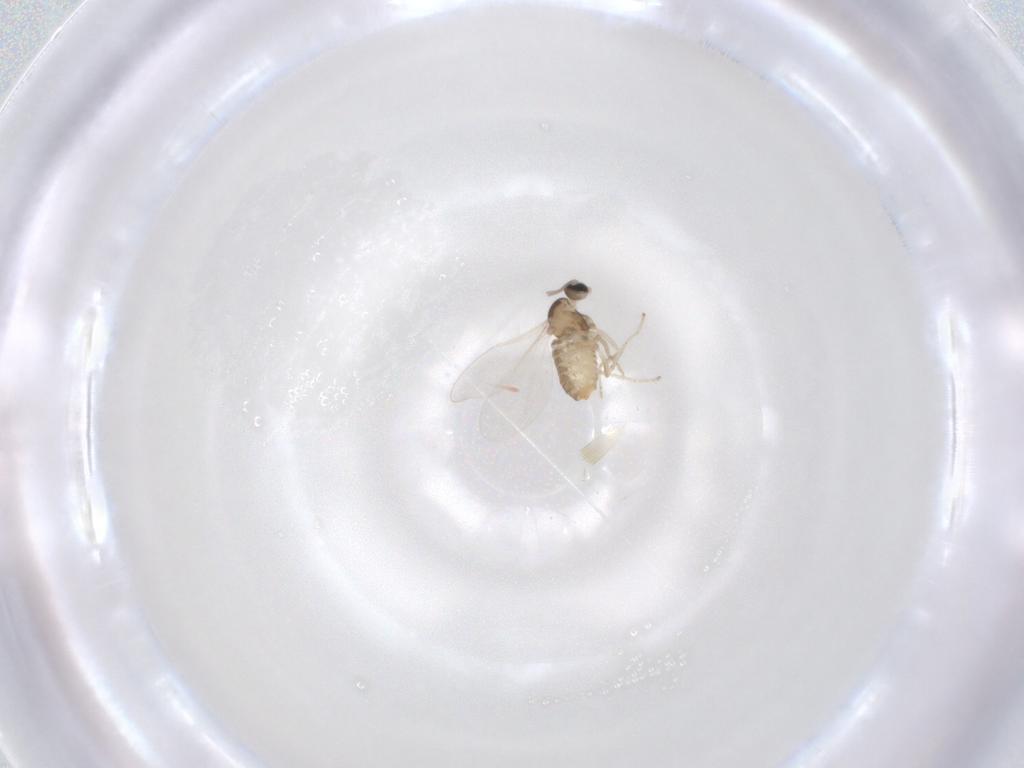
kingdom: Animalia
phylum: Arthropoda
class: Insecta
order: Diptera
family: Cecidomyiidae
